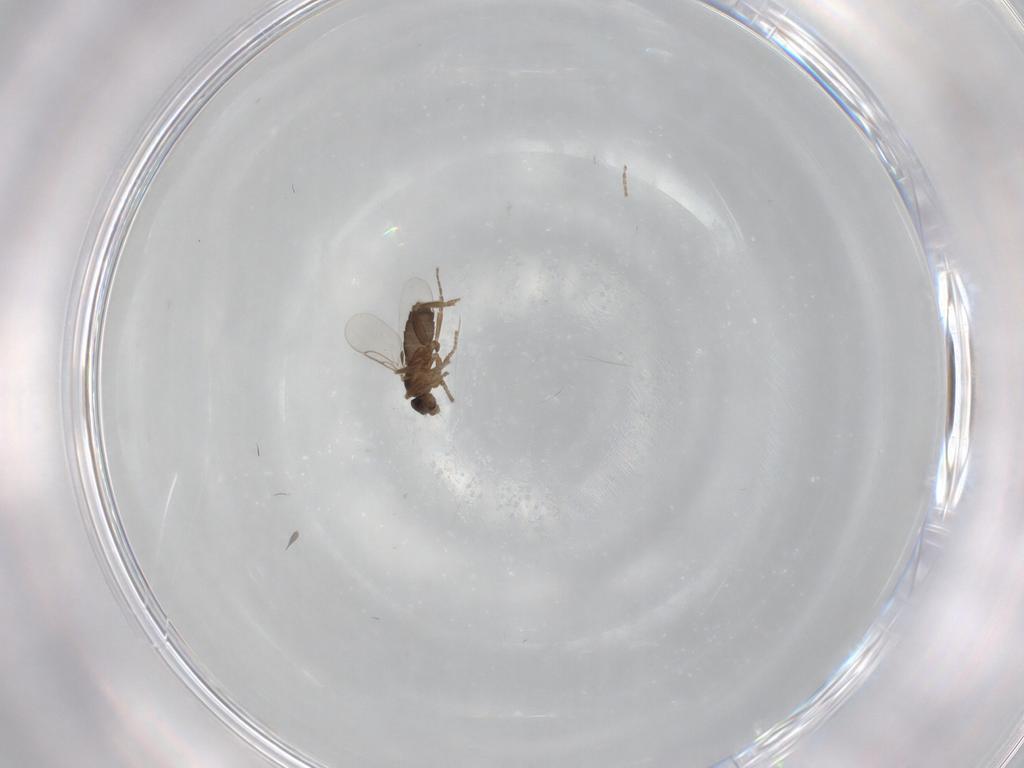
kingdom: Animalia
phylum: Arthropoda
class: Insecta
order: Diptera
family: Phoridae
